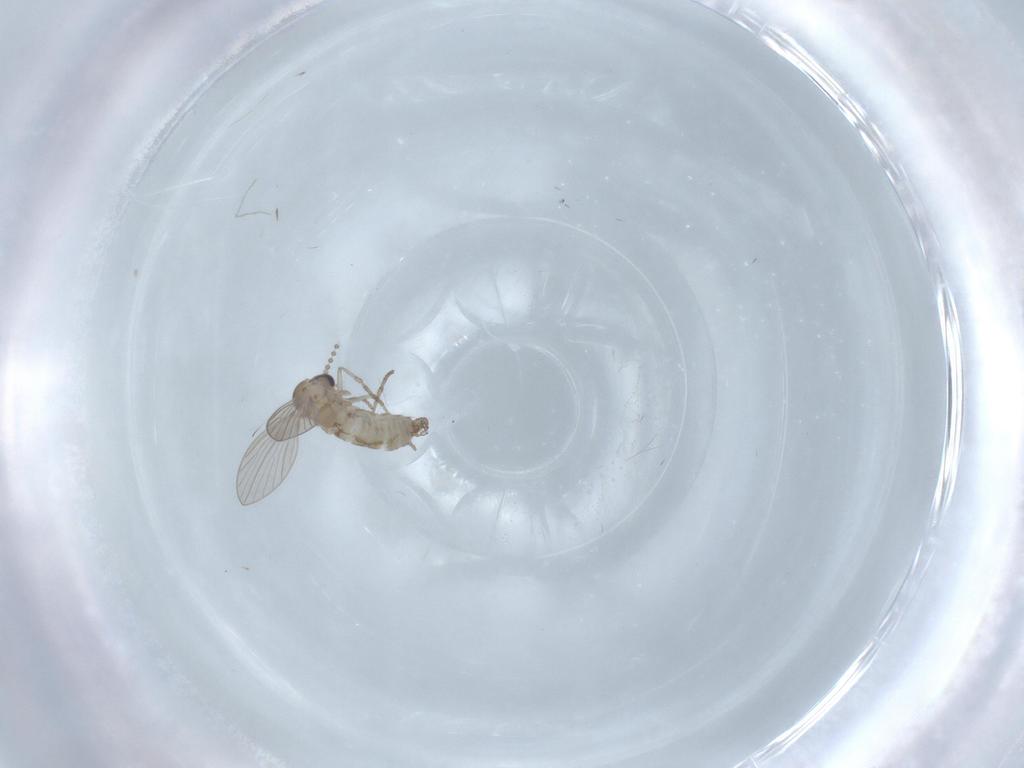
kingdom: Animalia
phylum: Arthropoda
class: Insecta
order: Diptera
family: Psychodidae
